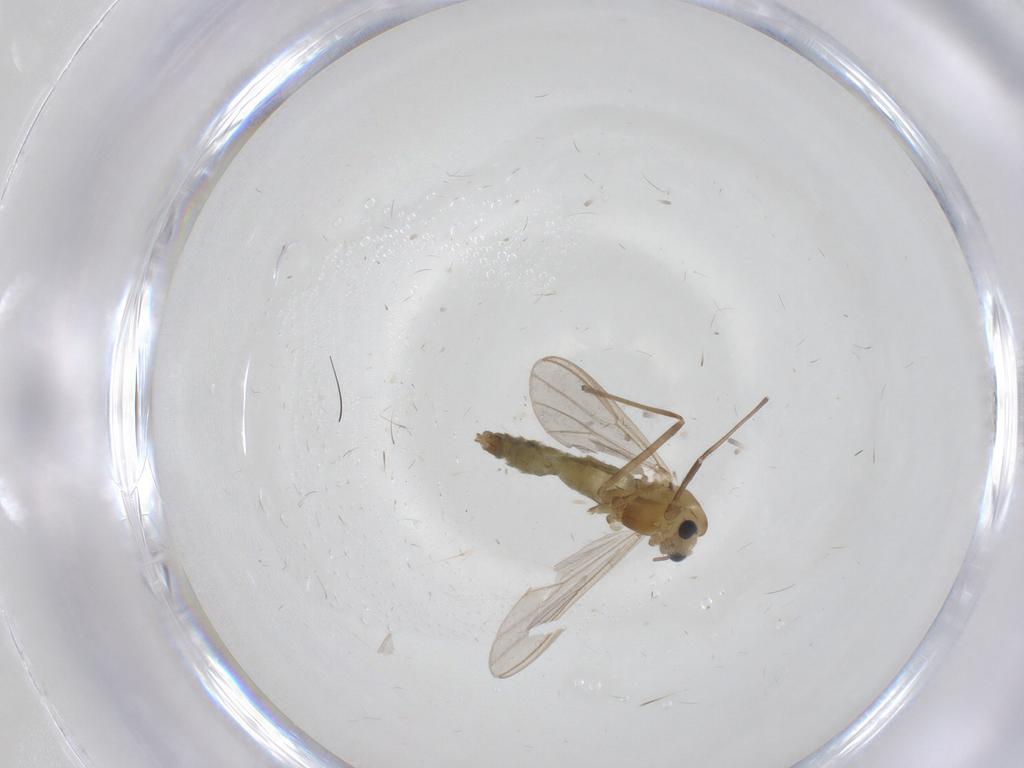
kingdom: Animalia
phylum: Arthropoda
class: Insecta
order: Diptera
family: Chironomidae
